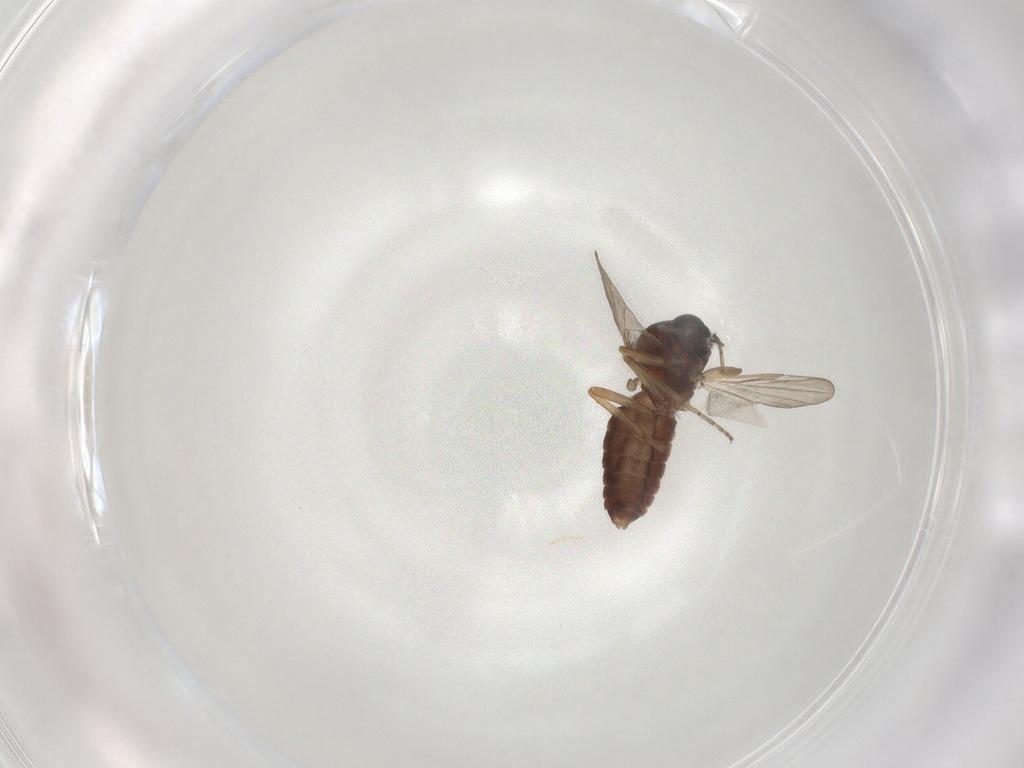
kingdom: Animalia
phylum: Arthropoda
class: Insecta
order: Diptera
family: Ceratopogonidae
